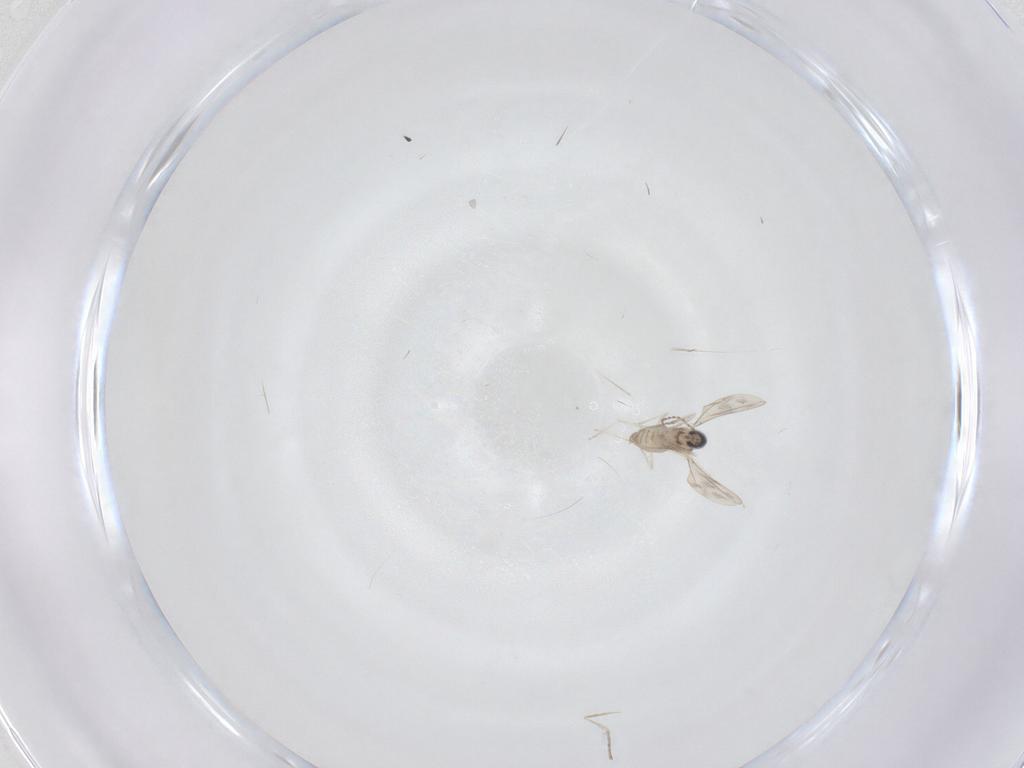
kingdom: Animalia
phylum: Arthropoda
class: Insecta
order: Diptera
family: Cecidomyiidae
